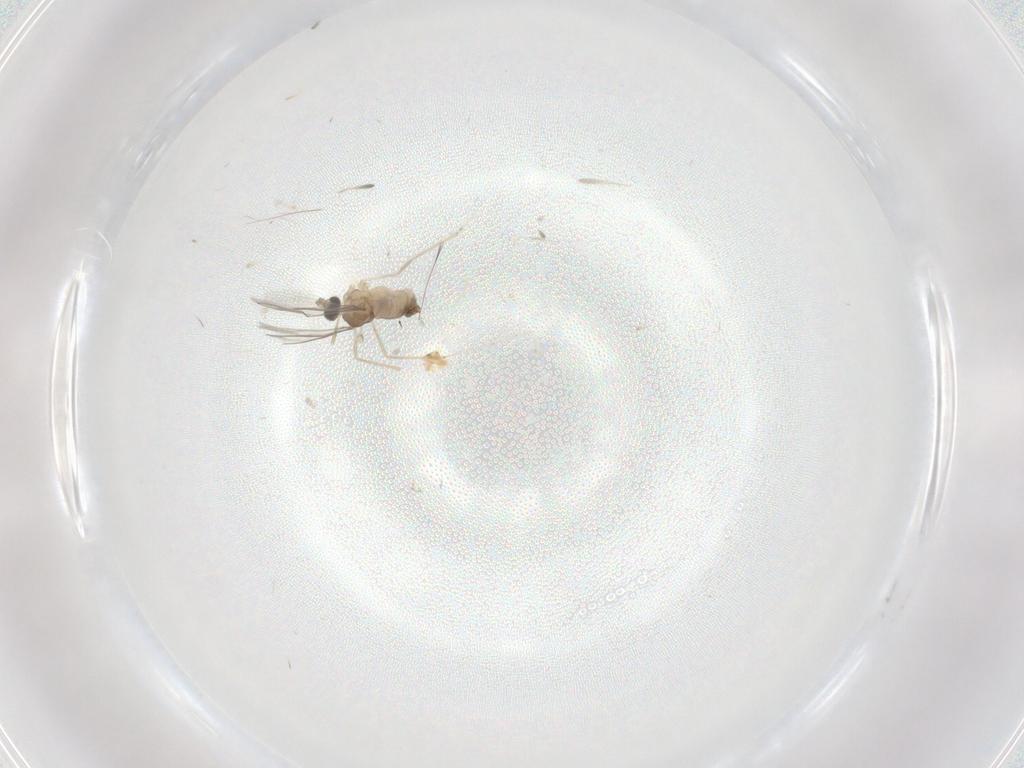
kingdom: Animalia
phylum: Arthropoda
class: Insecta
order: Diptera
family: Cecidomyiidae
